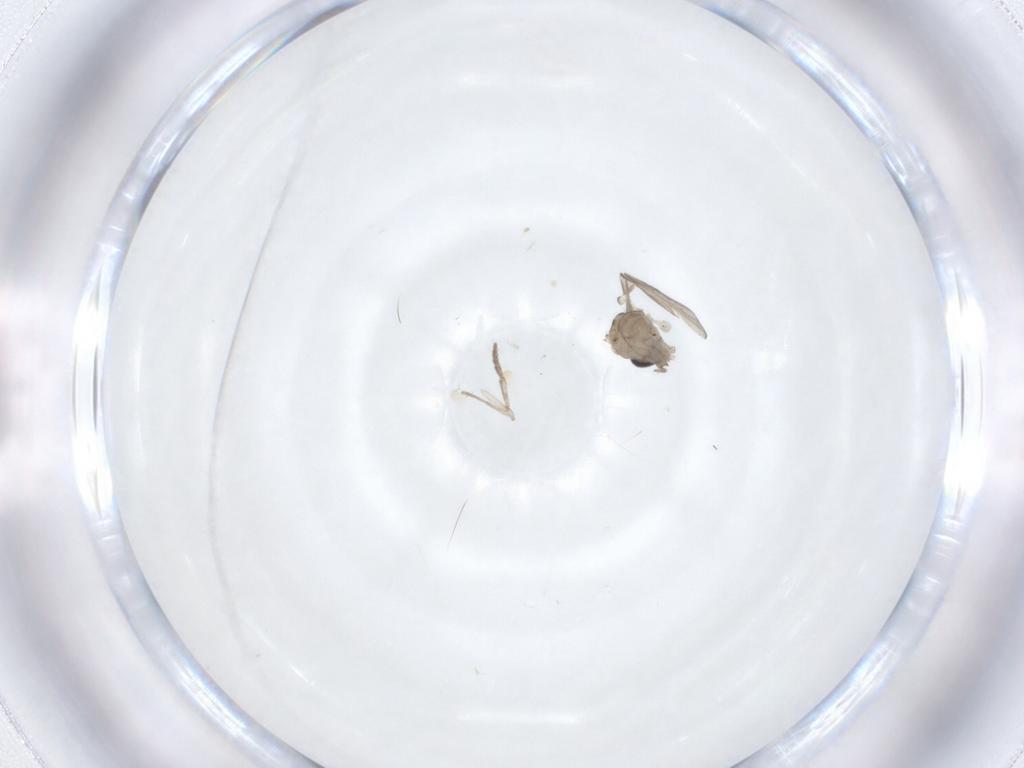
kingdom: Animalia
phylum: Arthropoda
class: Insecta
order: Diptera
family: Psychodidae
